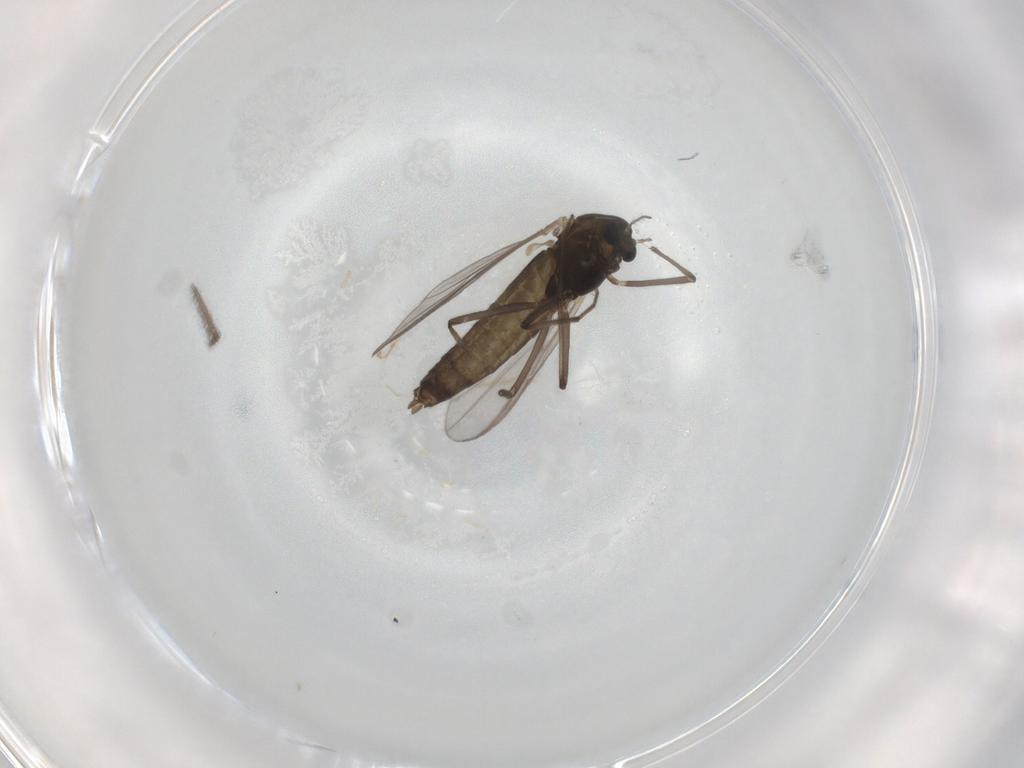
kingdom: Animalia
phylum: Arthropoda
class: Insecta
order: Diptera
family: Chironomidae
